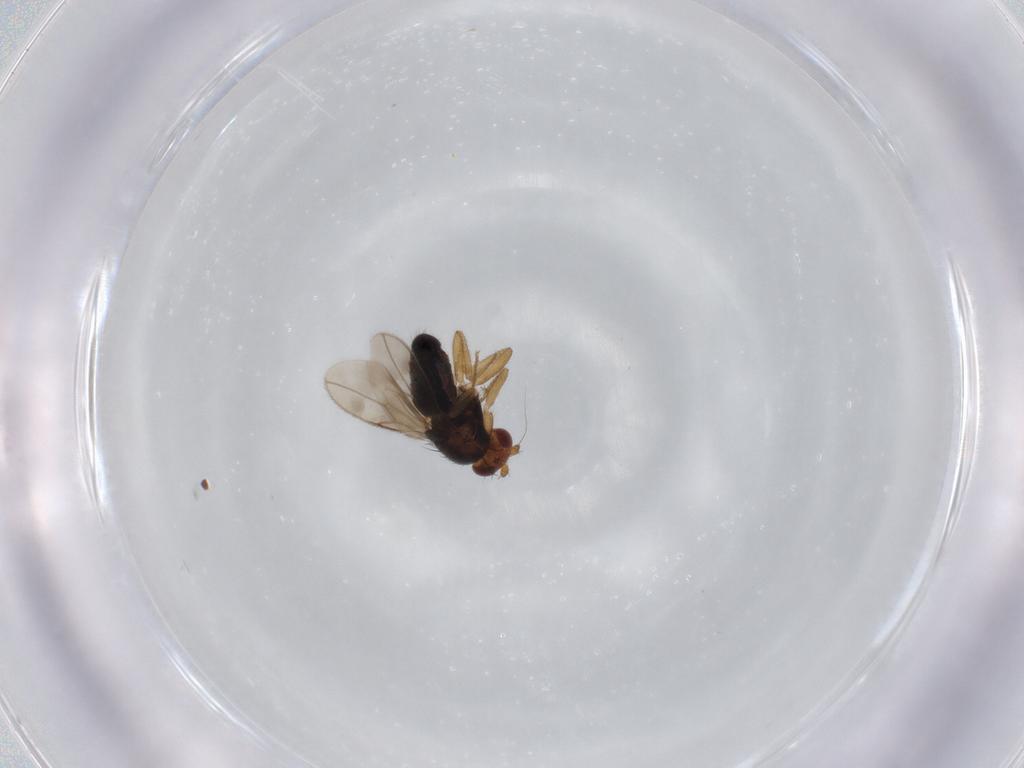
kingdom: Animalia
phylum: Arthropoda
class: Insecta
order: Diptera
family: Sphaeroceridae
